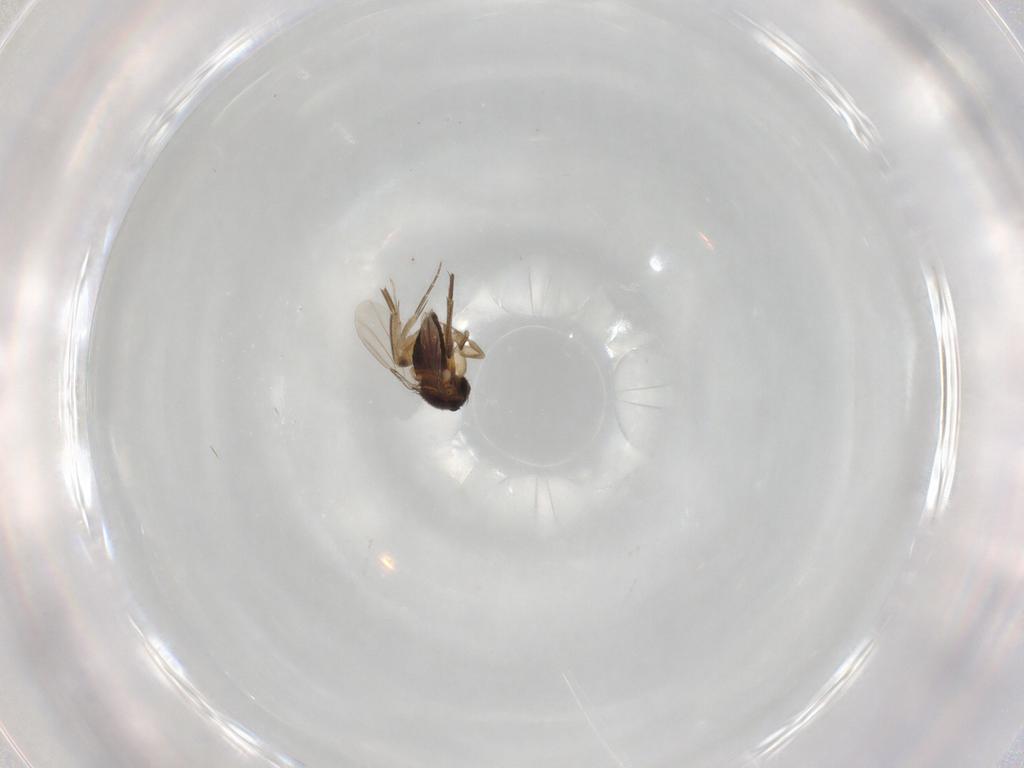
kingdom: Animalia
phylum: Arthropoda
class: Insecta
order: Diptera
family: Phoridae
